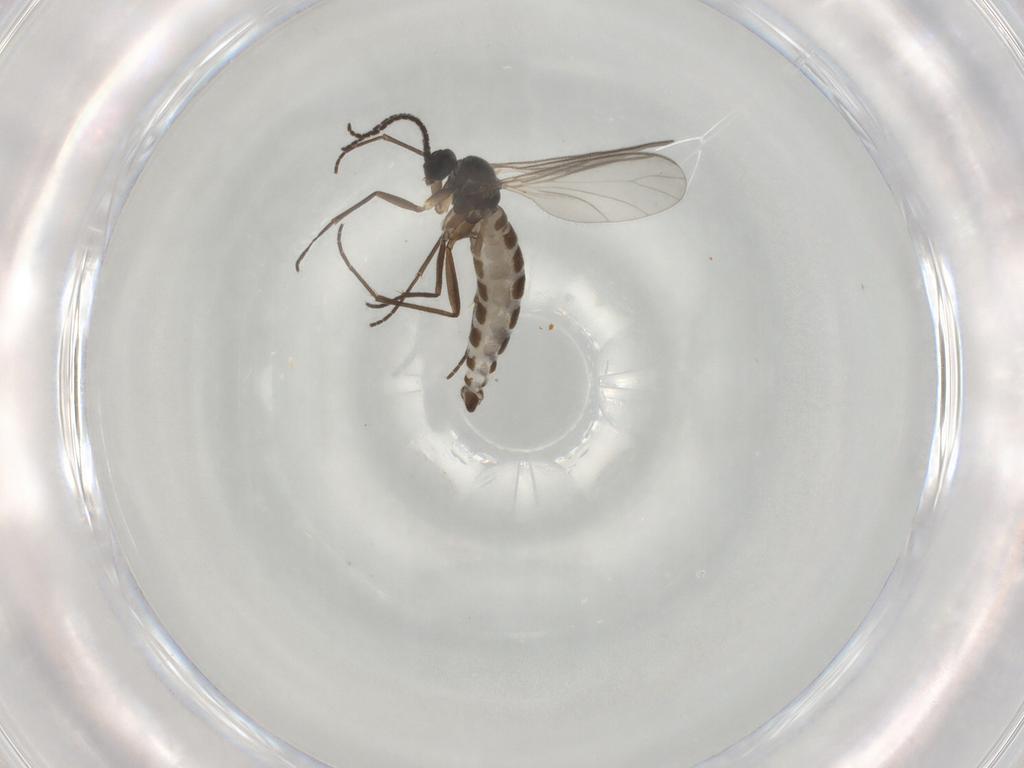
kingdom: Animalia
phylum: Arthropoda
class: Insecta
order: Diptera
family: Sciaridae
